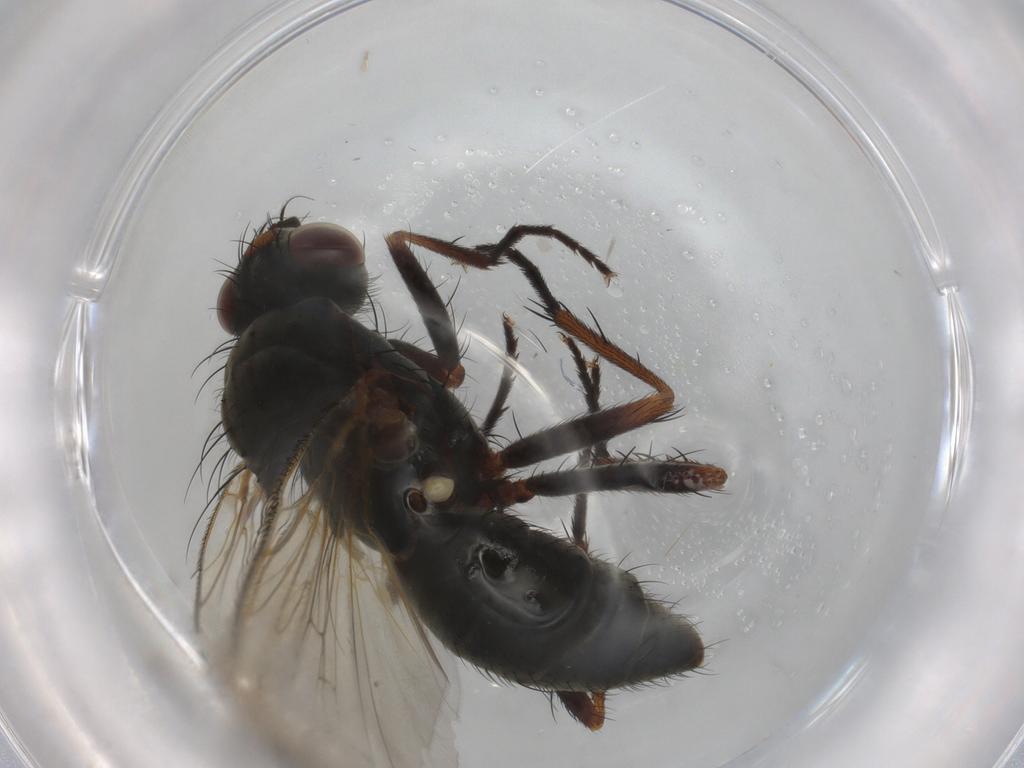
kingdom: Animalia
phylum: Arthropoda
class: Insecta
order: Diptera
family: Anthomyiidae
